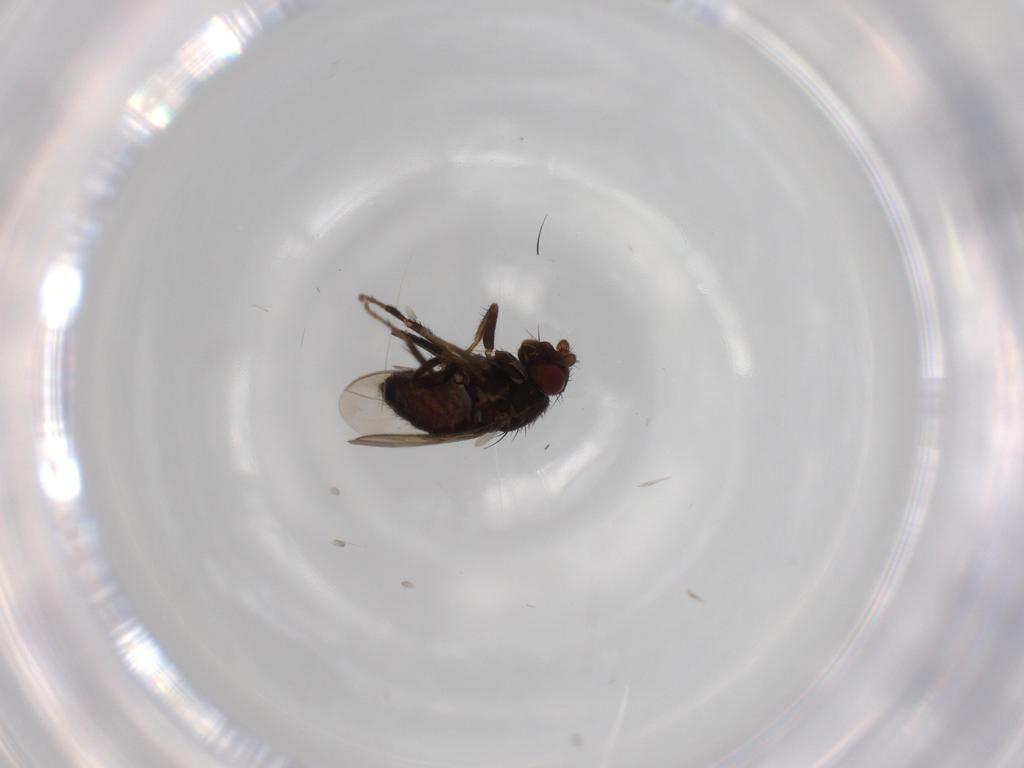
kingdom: Animalia
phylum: Arthropoda
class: Insecta
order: Diptera
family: Sphaeroceridae
